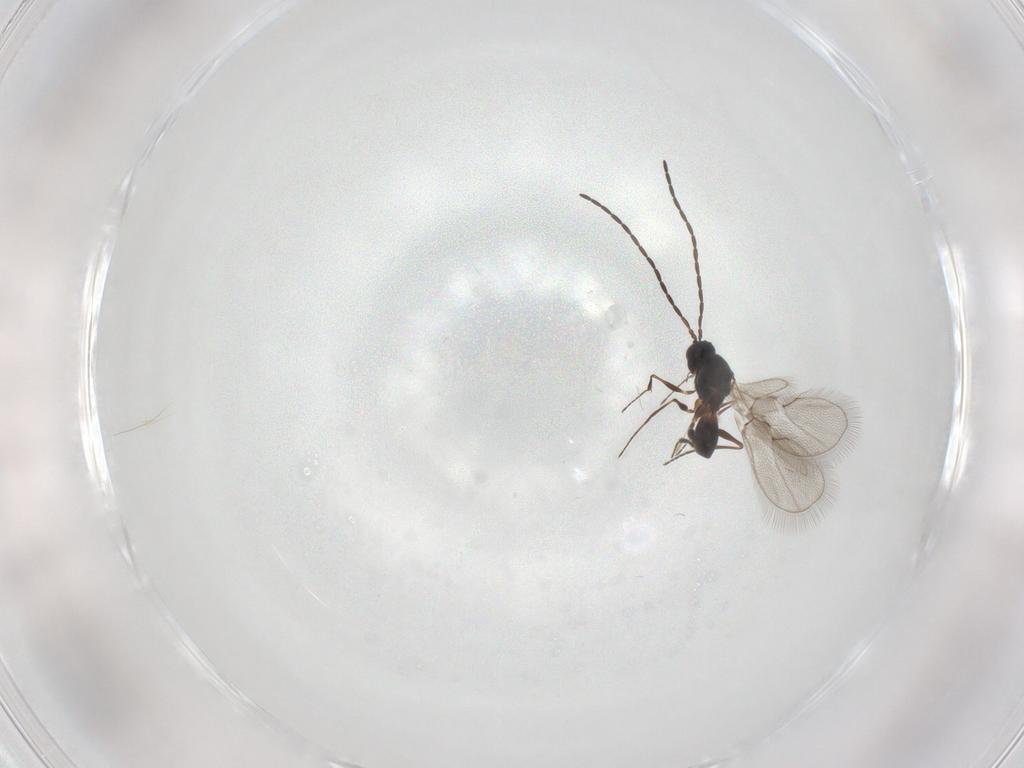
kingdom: Animalia
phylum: Arthropoda
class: Insecta
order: Hymenoptera
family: Figitidae
